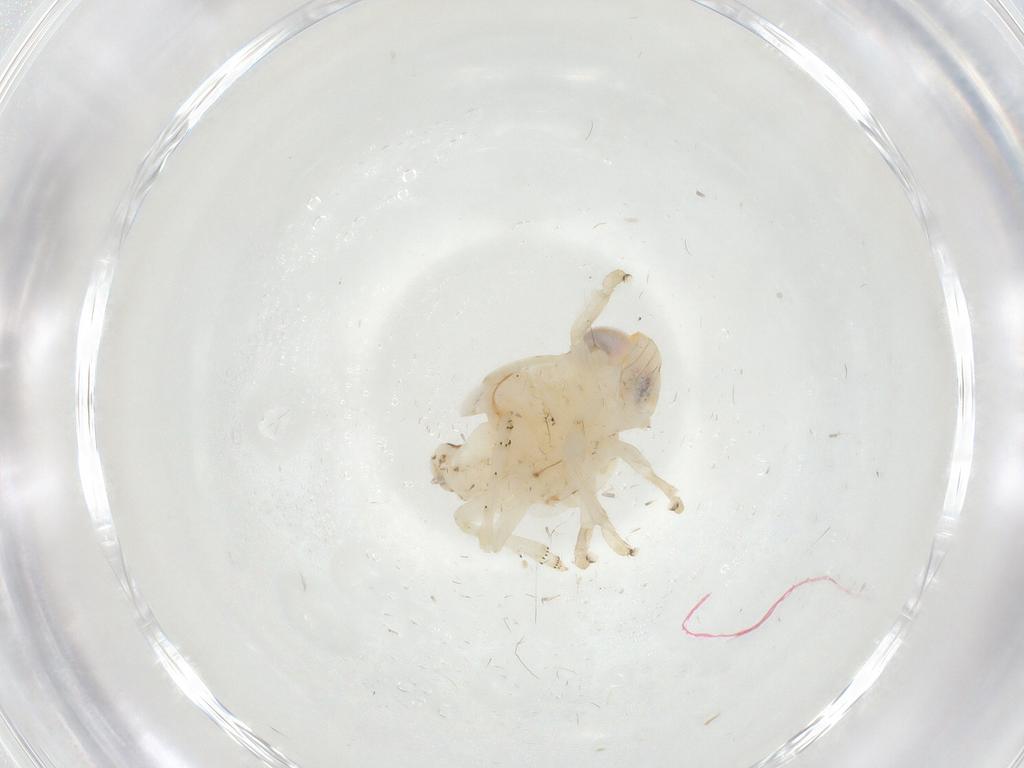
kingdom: Animalia
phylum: Arthropoda
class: Insecta
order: Hemiptera
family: Nogodinidae
